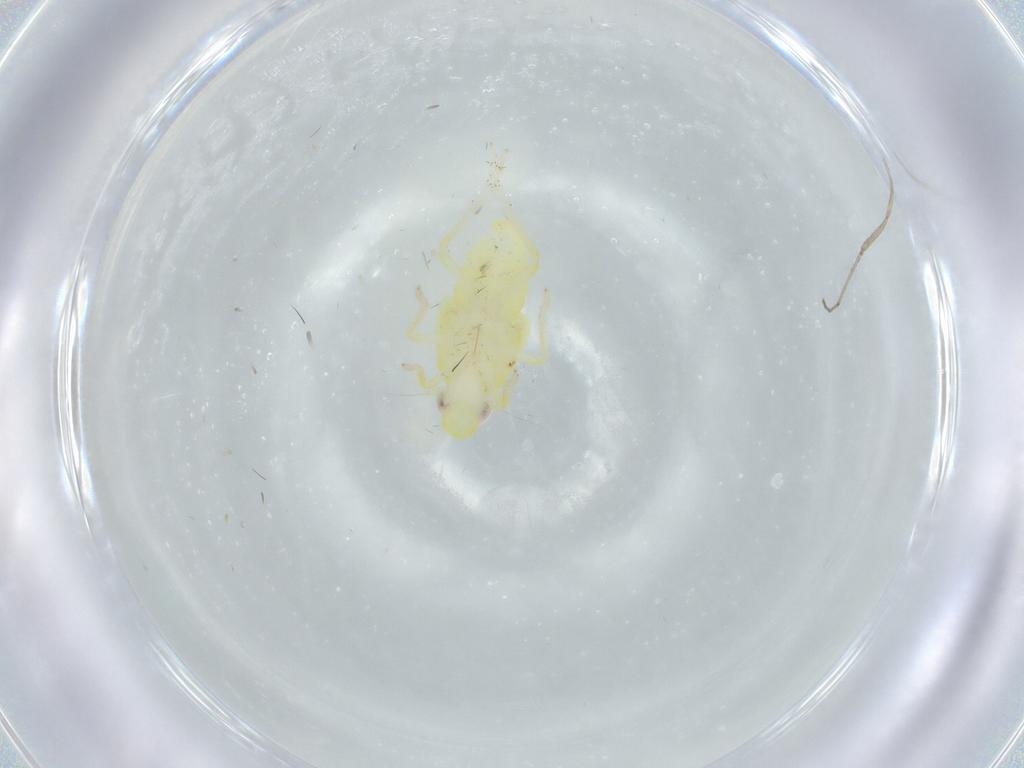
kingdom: Animalia
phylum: Arthropoda
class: Insecta
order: Hemiptera
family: Tropiduchidae
